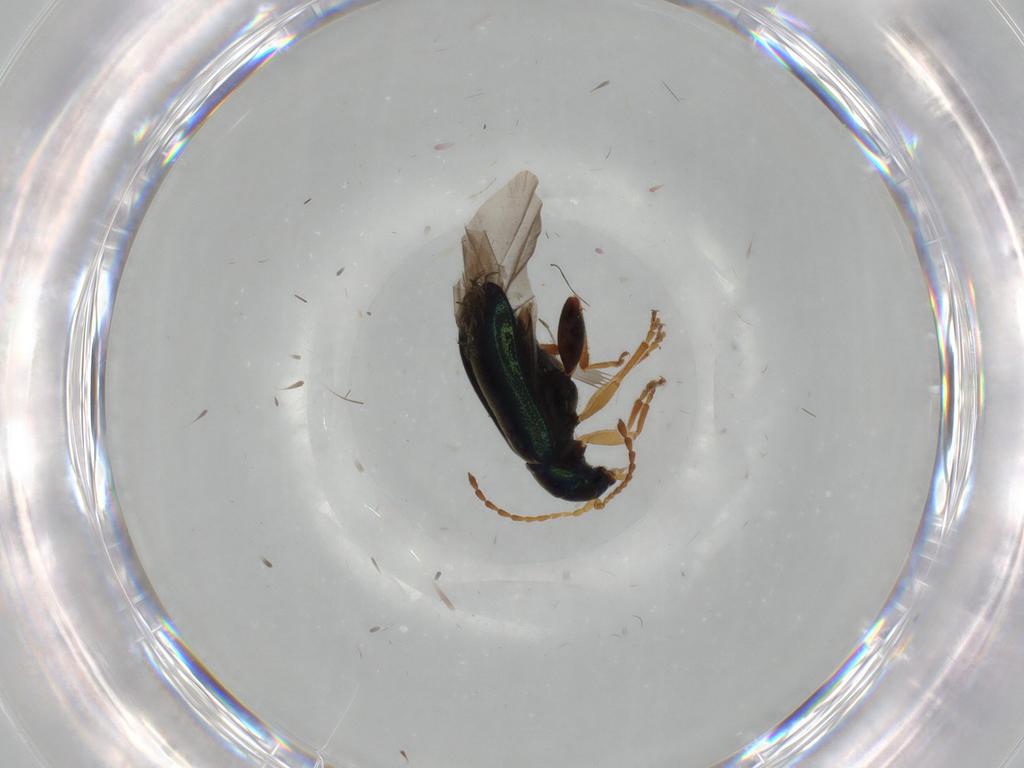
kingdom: Animalia
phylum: Arthropoda
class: Insecta
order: Coleoptera
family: Chrysomelidae
